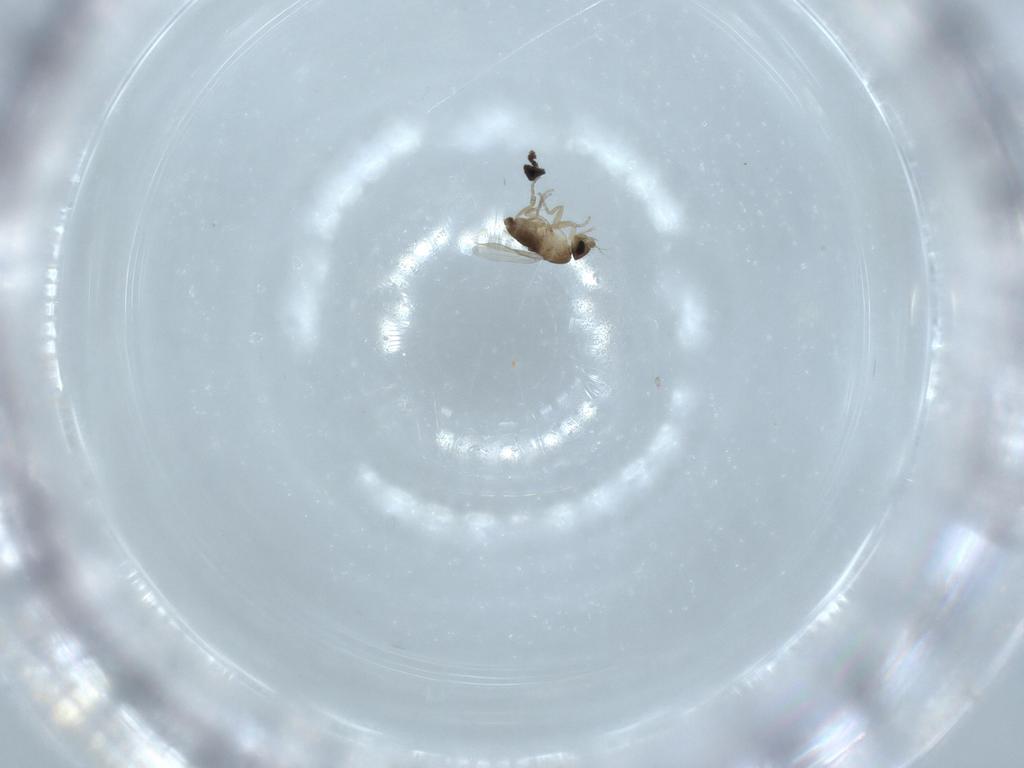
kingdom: Animalia
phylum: Arthropoda
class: Insecta
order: Diptera
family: Phoridae
